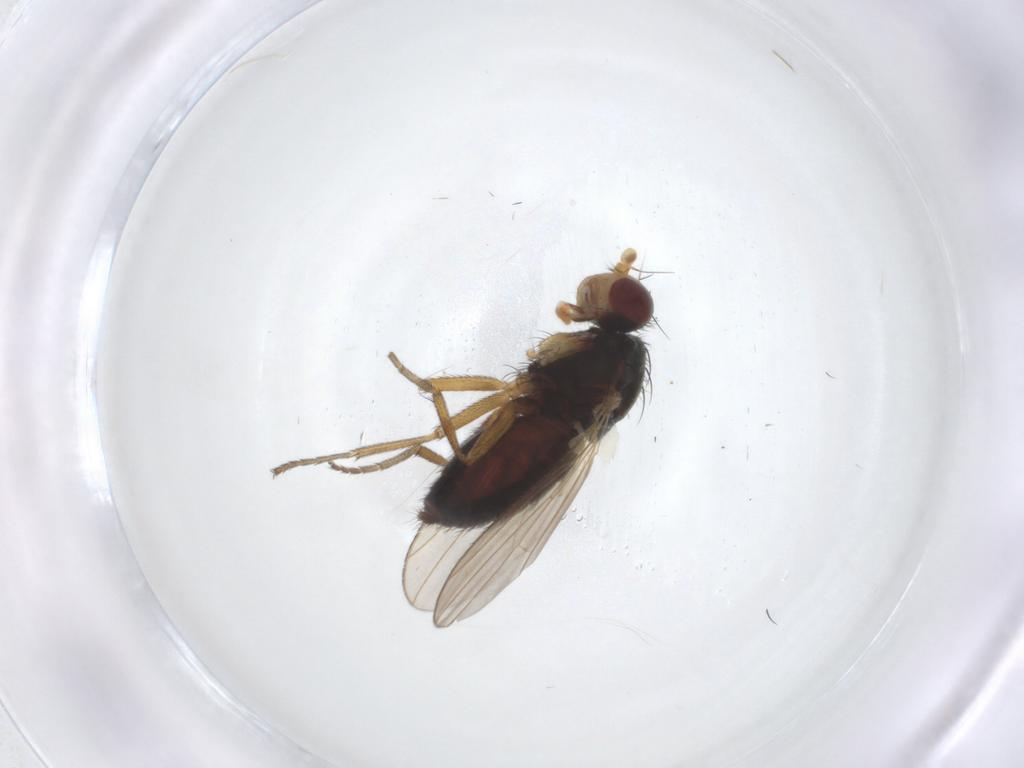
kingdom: Animalia
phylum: Arthropoda
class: Insecta
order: Diptera
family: Heleomyzidae
